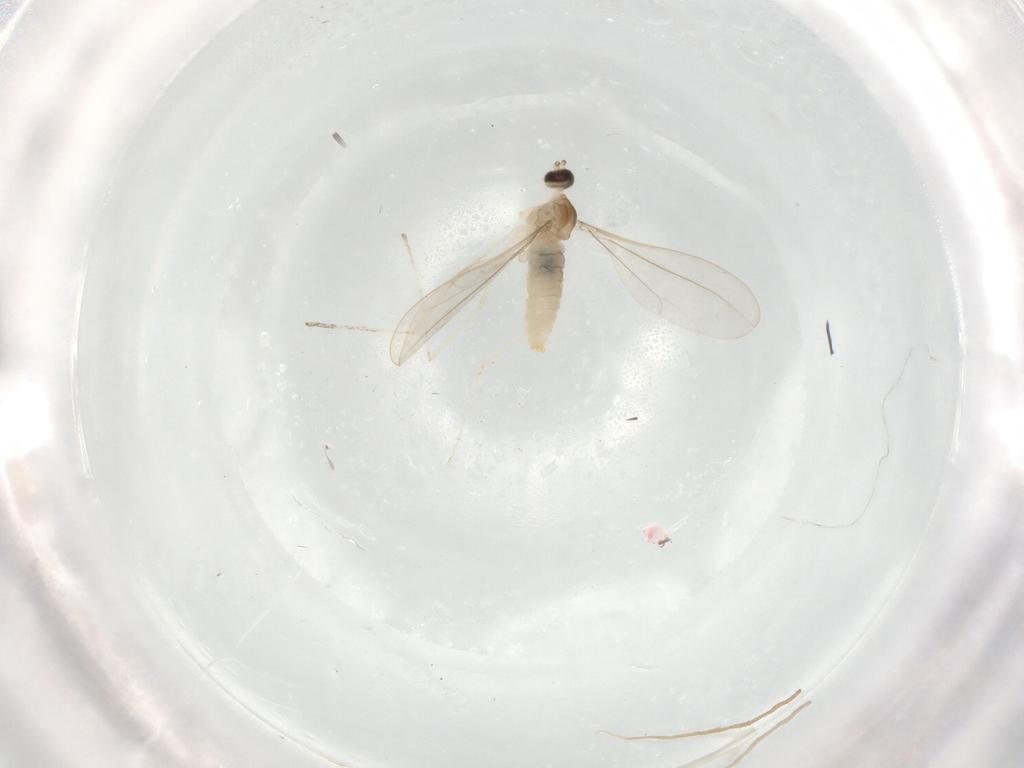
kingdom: Animalia
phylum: Arthropoda
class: Insecta
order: Diptera
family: Cecidomyiidae
